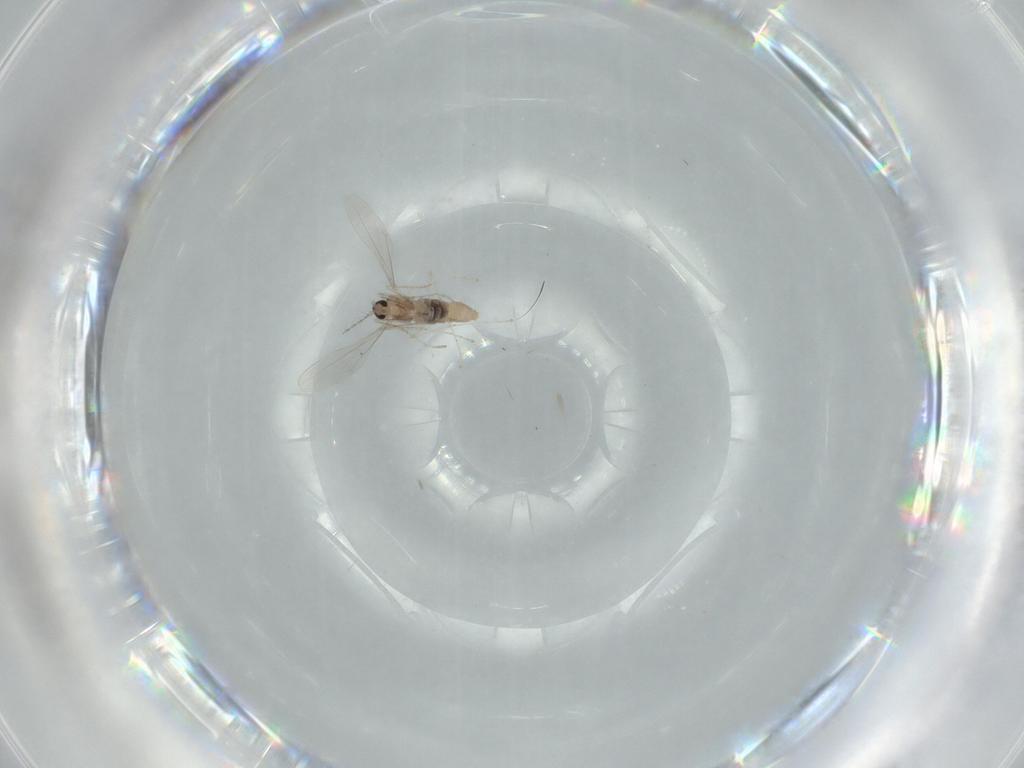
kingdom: Animalia
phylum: Arthropoda
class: Insecta
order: Diptera
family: Cecidomyiidae
